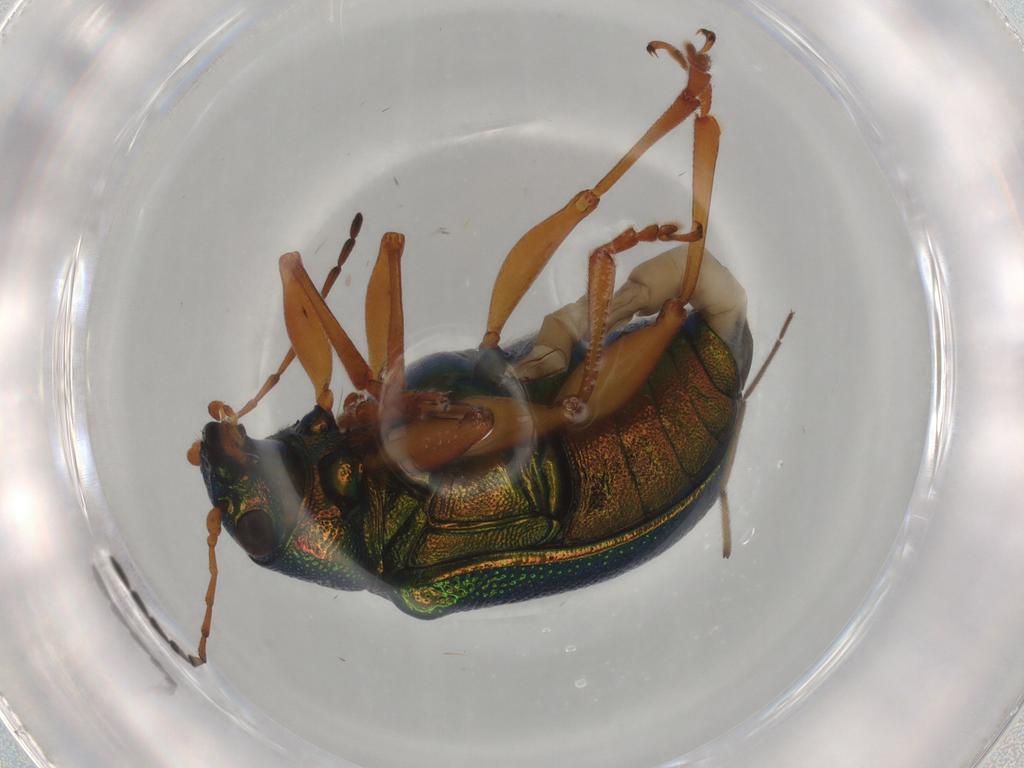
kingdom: Animalia
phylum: Arthropoda
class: Insecta
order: Coleoptera
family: Chrysomelidae
